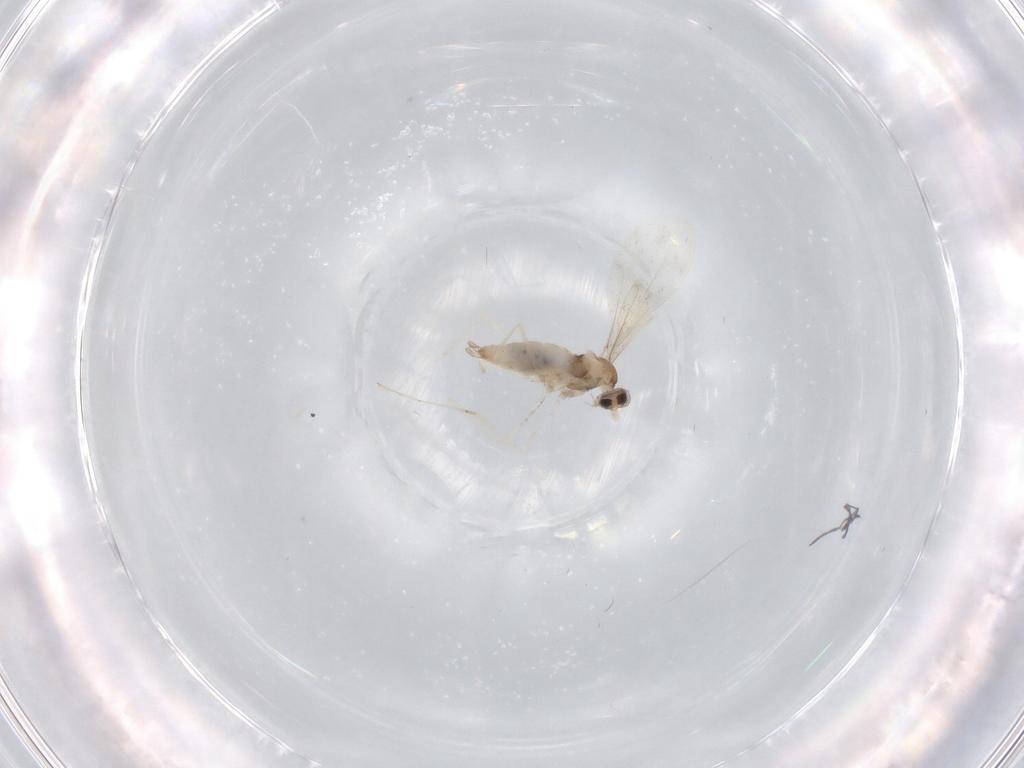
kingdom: Animalia
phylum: Arthropoda
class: Insecta
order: Diptera
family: Cecidomyiidae
